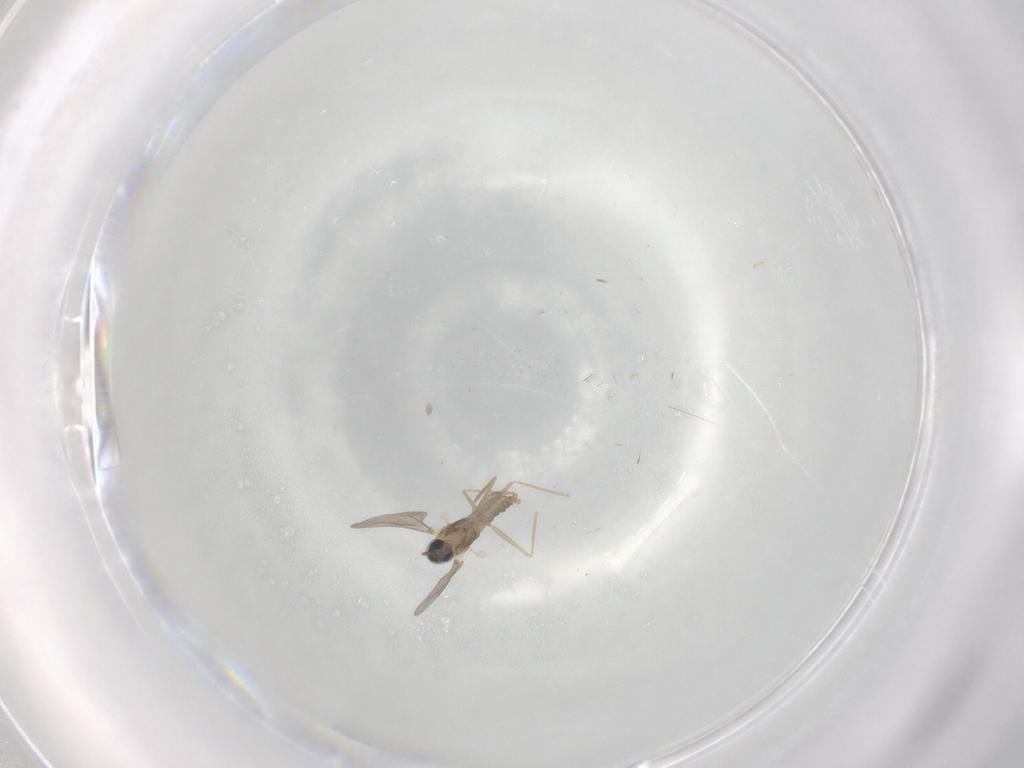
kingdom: Animalia
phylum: Arthropoda
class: Insecta
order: Diptera
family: Cecidomyiidae
